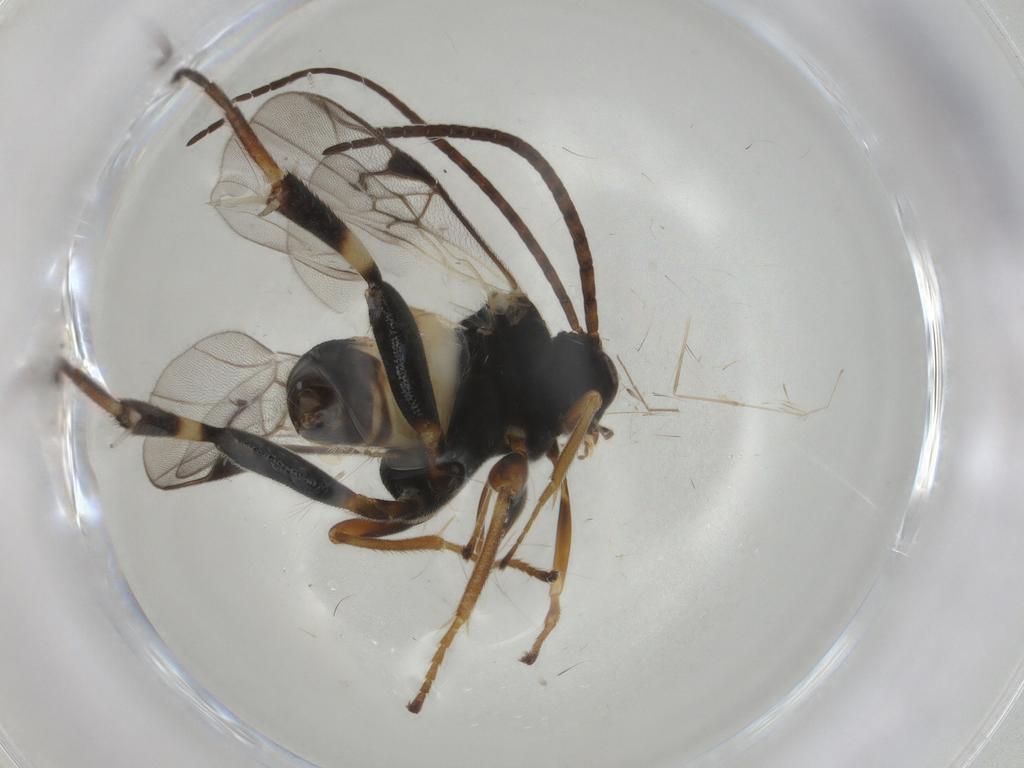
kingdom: Animalia
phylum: Arthropoda
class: Insecta
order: Hymenoptera
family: Braconidae
